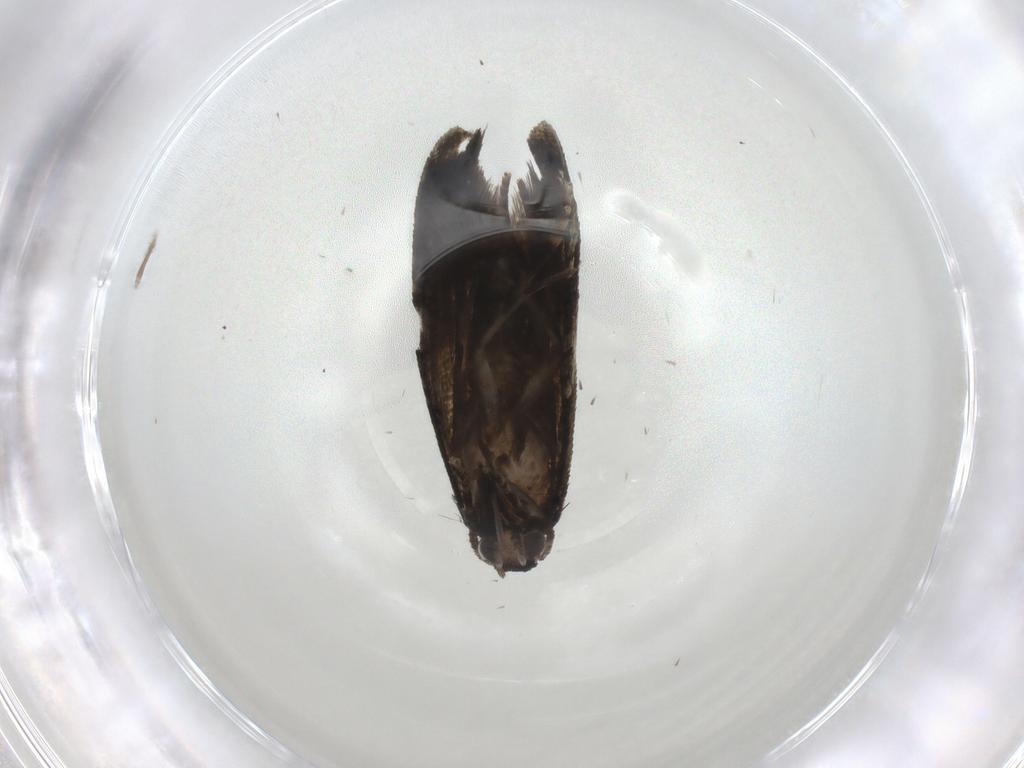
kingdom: Animalia
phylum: Arthropoda
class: Insecta
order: Lepidoptera
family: Tortricidae
